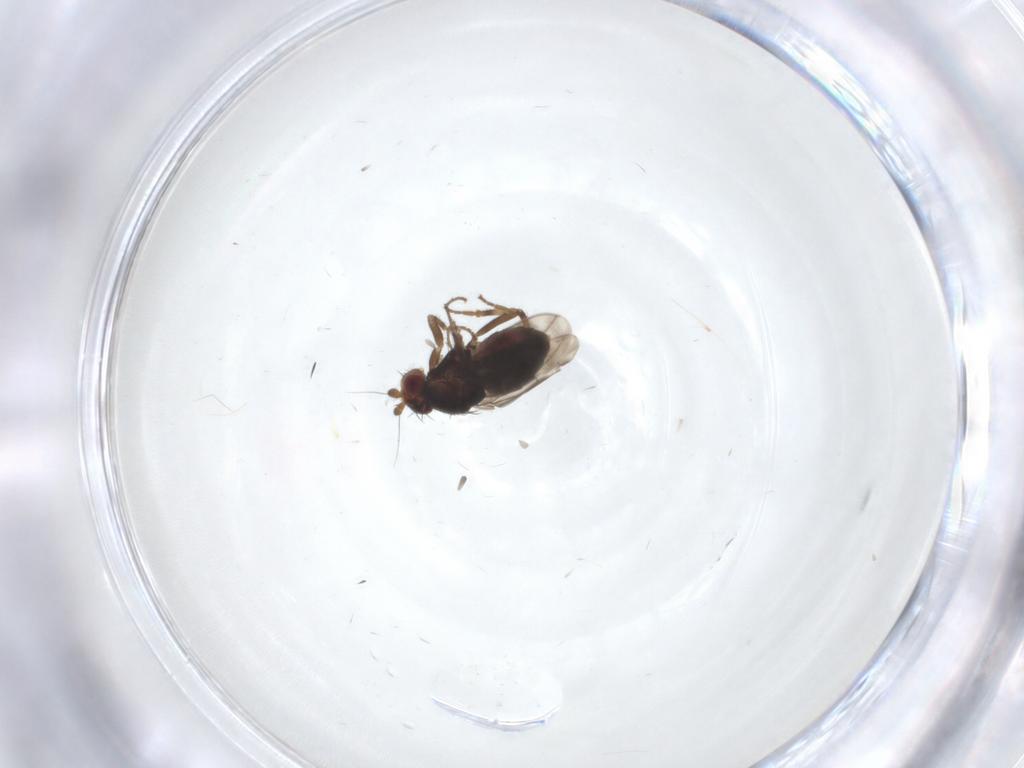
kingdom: Animalia
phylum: Arthropoda
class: Insecta
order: Diptera
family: Sphaeroceridae
